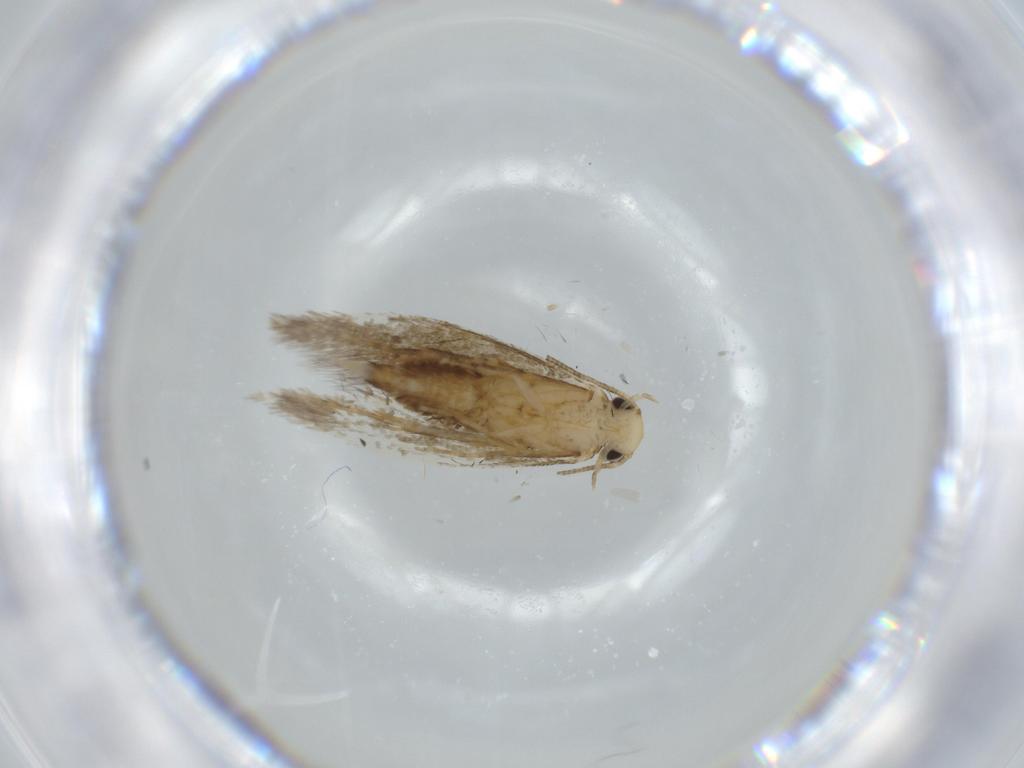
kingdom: Animalia
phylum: Arthropoda
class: Insecta
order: Lepidoptera
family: Tineidae
